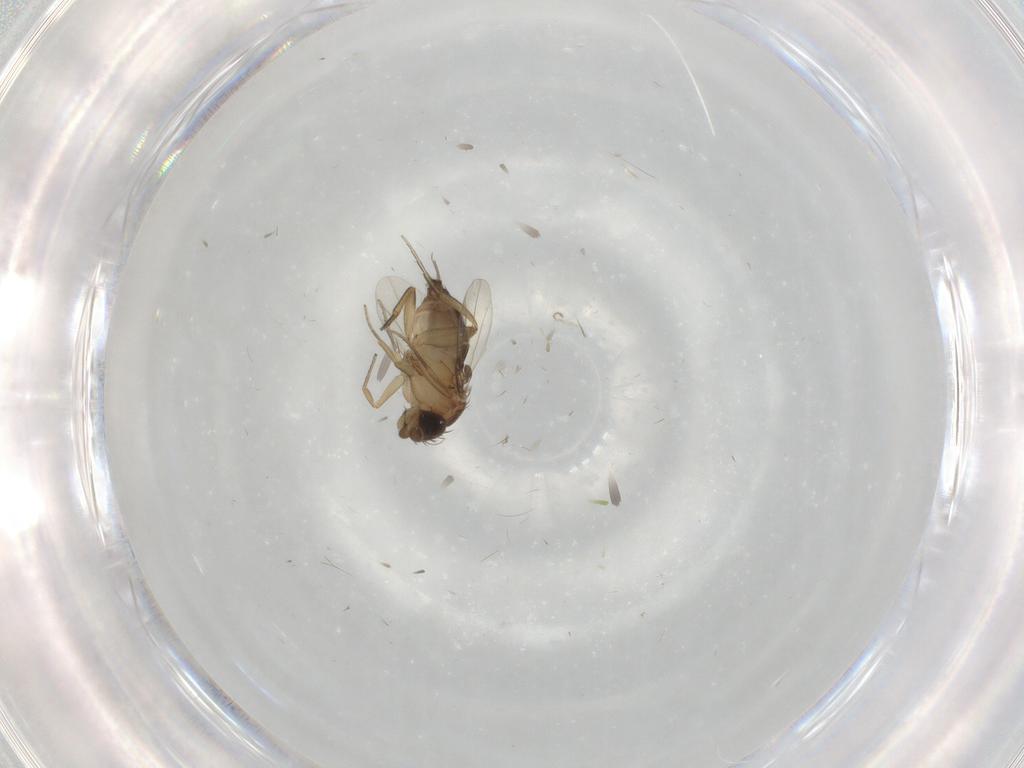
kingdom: Animalia
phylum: Arthropoda
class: Insecta
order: Diptera
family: Phoridae
